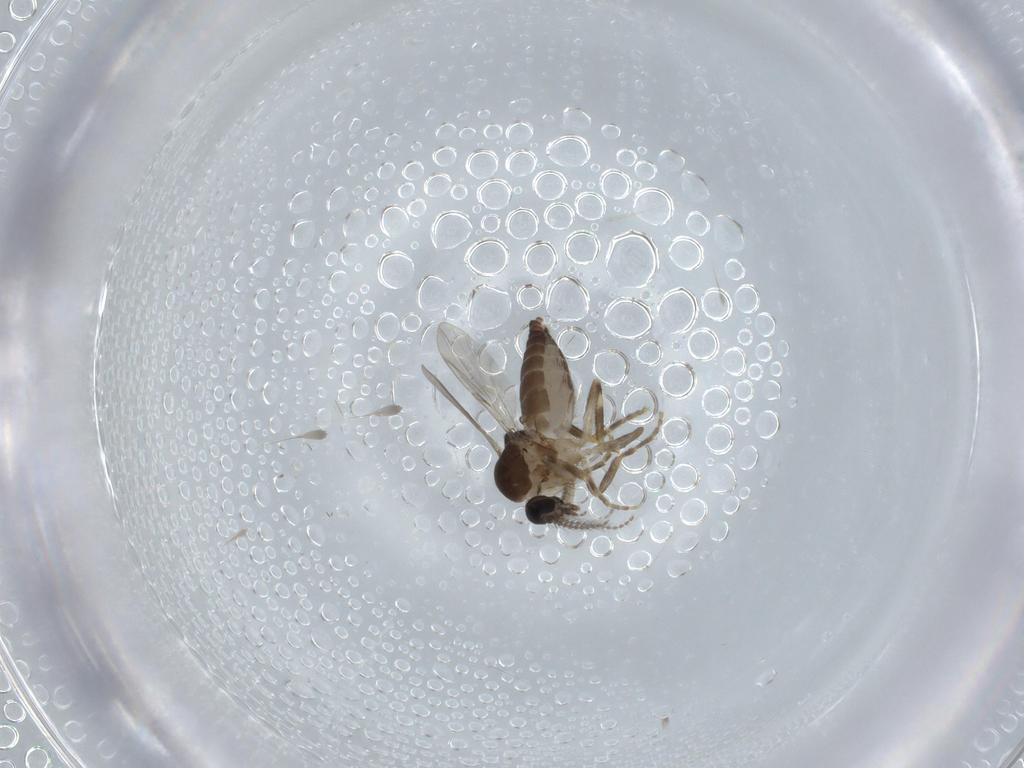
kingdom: Animalia
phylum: Arthropoda
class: Insecta
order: Diptera
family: Ceratopogonidae
